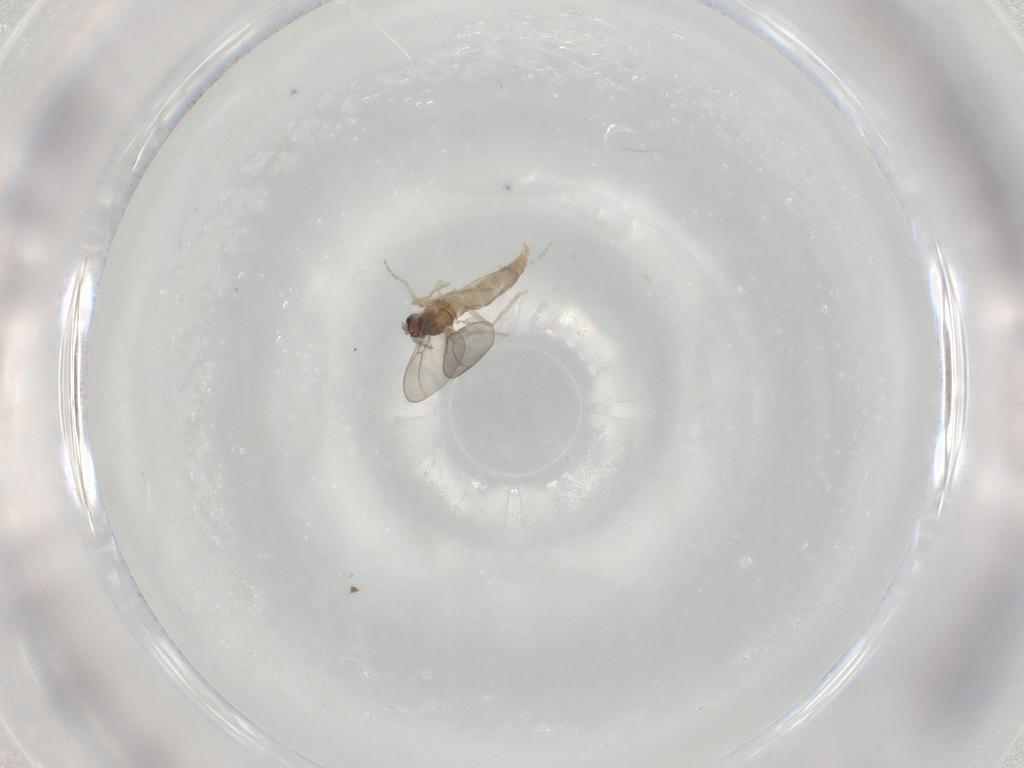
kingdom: Animalia
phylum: Arthropoda
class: Insecta
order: Diptera
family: Cecidomyiidae
